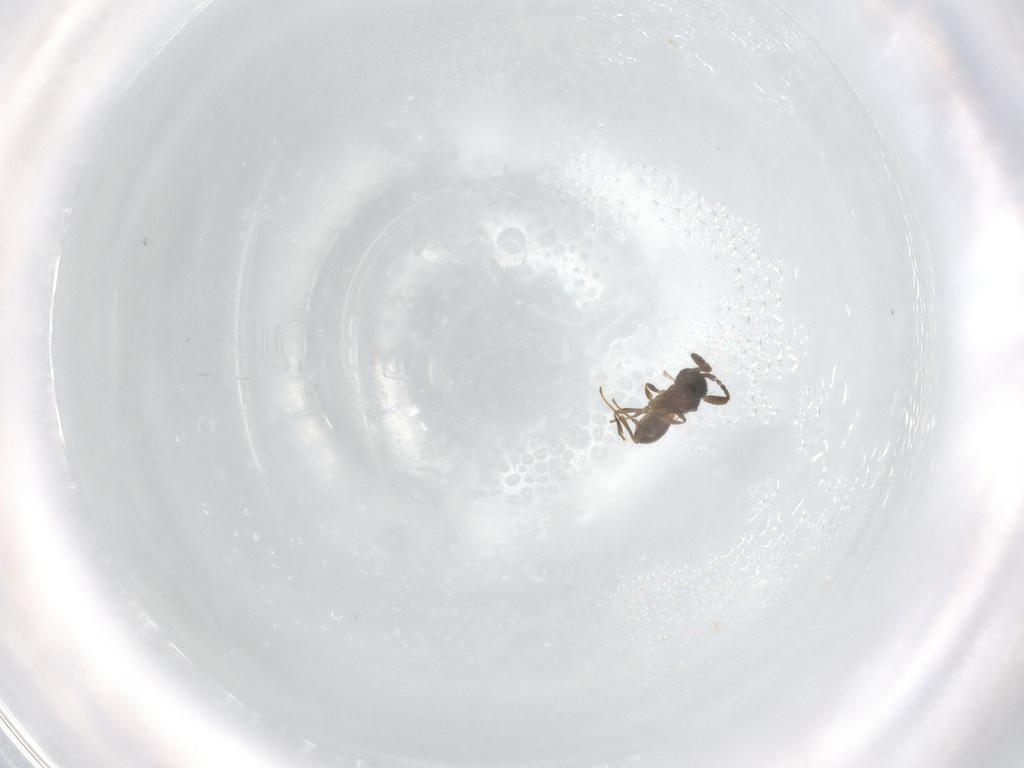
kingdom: Animalia
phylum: Arthropoda
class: Insecta
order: Hymenoptera
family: Scelionidae
